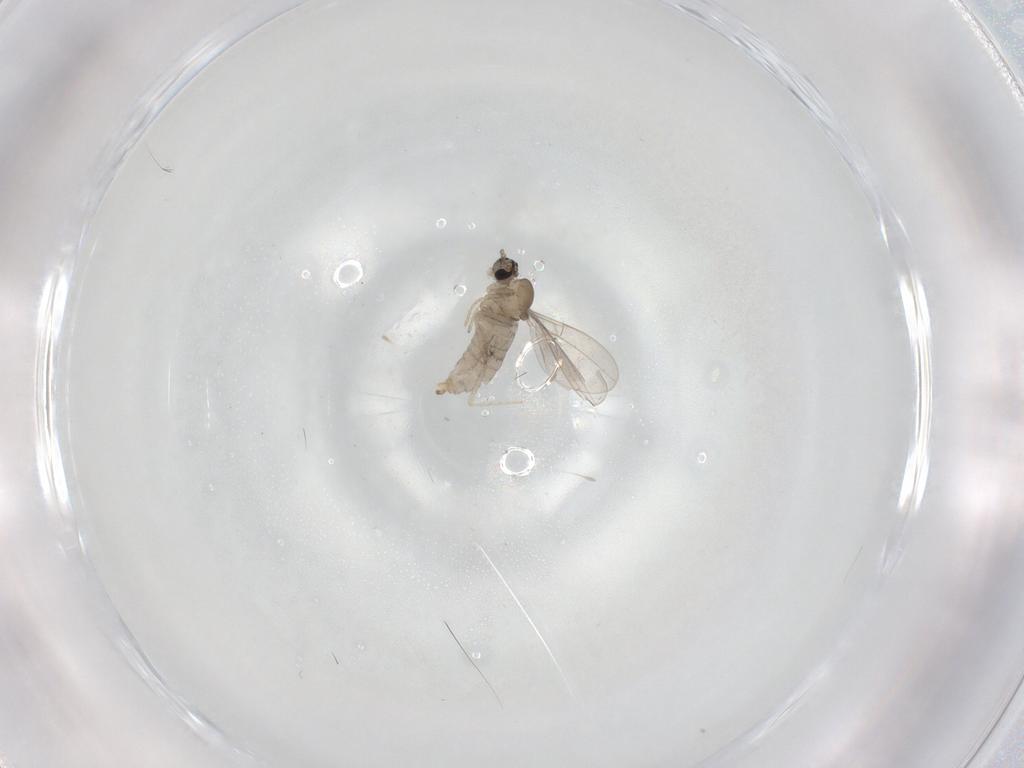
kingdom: Animalia
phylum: Arthropoda
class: Insecta
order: Diptera
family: Cecidomyiidae
